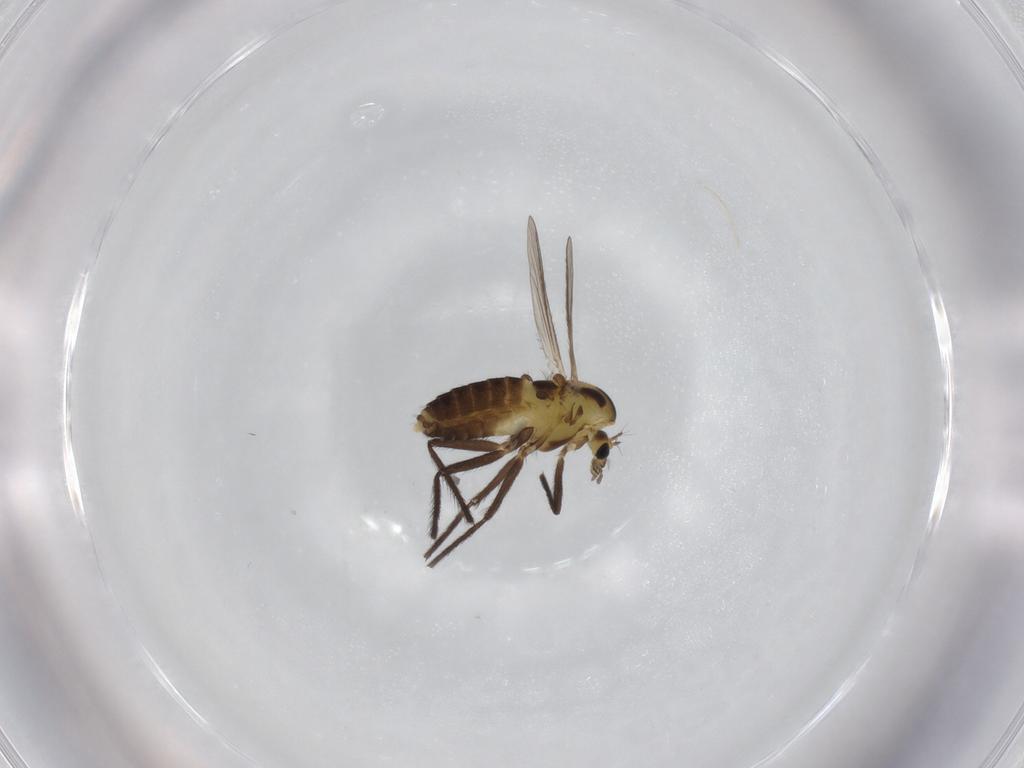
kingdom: Animalia
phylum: Arthropoda
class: Insecta
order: Diptera
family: Chironomidae
